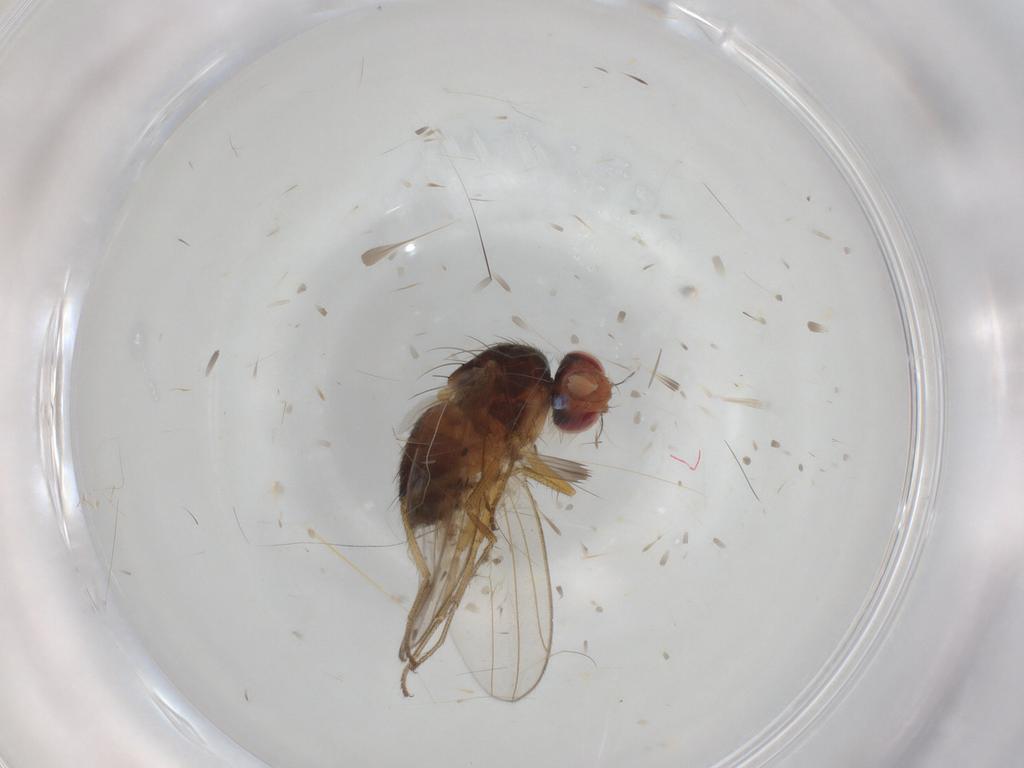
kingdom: Animalia
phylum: Arthropoda
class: Insecta
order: Diptera
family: Drosophilidae
